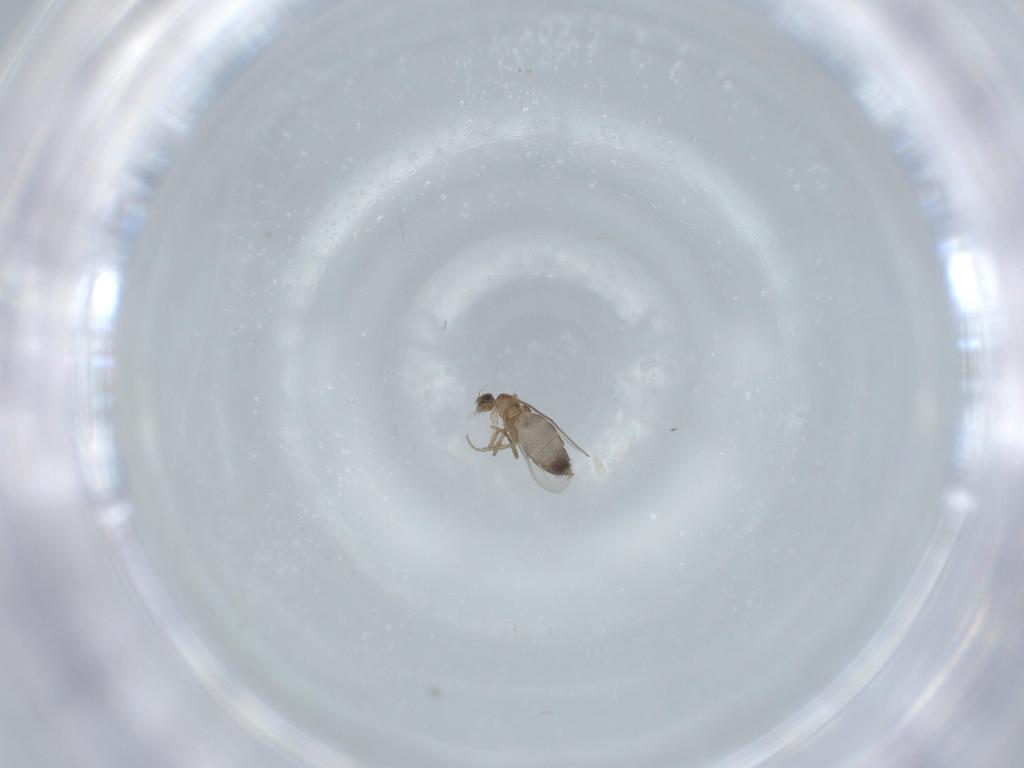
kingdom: Animalia
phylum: Arthropoda
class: Insecta
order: Diptera
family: Phoridae
